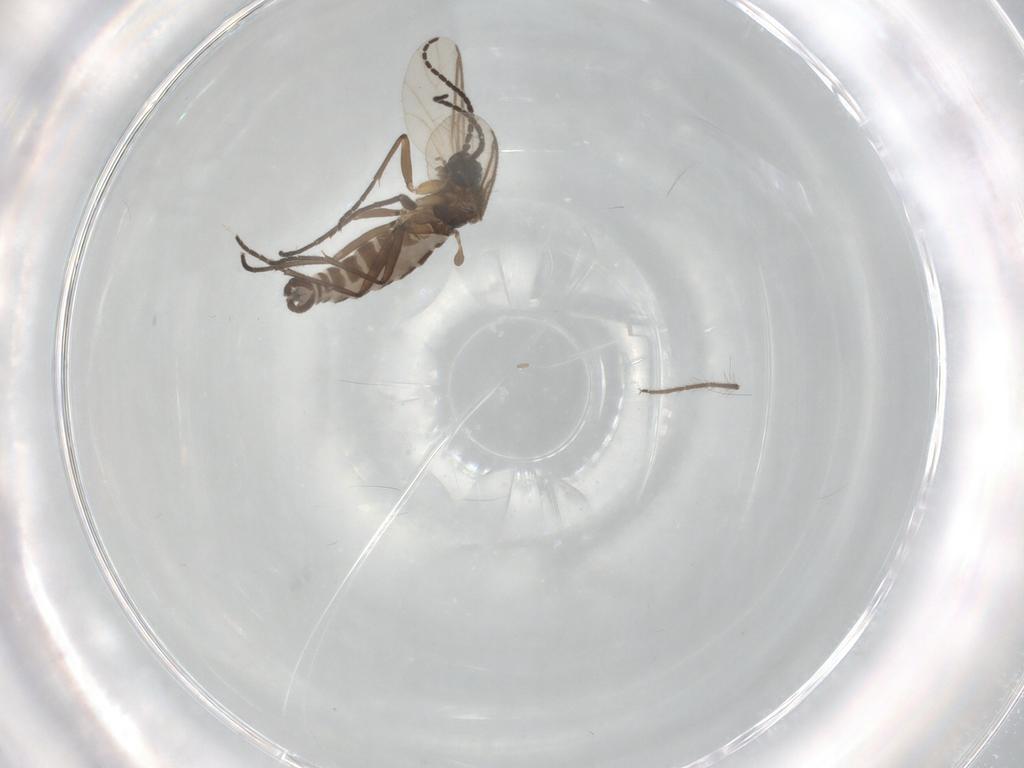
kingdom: Animalia
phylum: Arthropoda
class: Insecta
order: Diptera
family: Sciaridae
